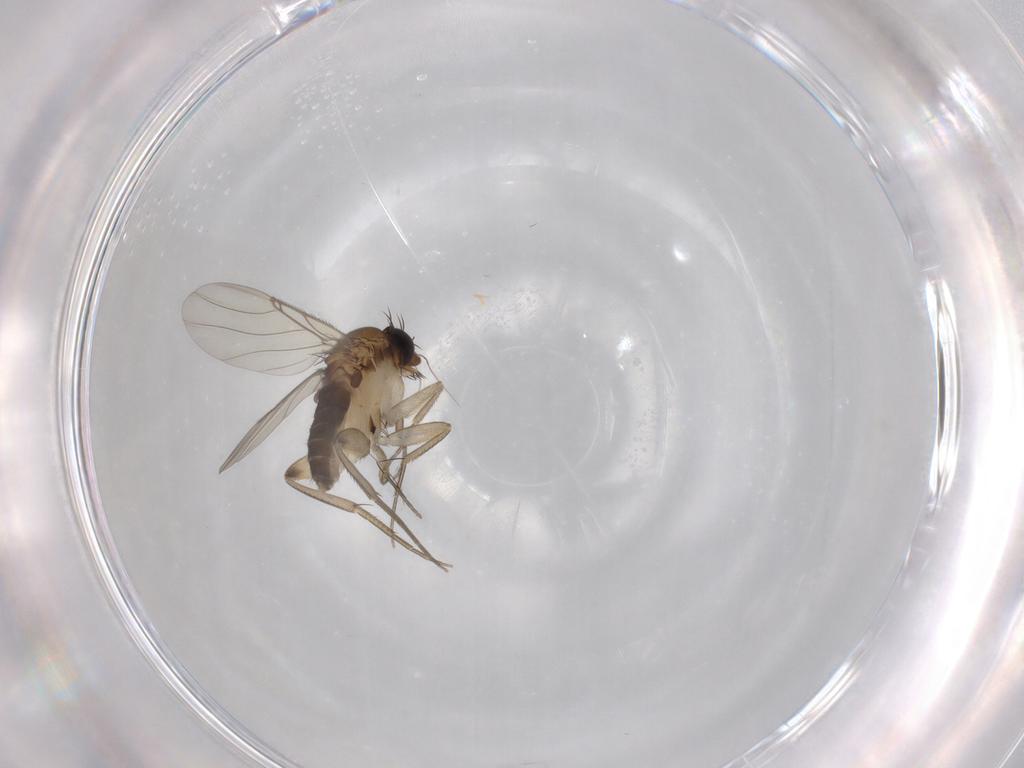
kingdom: Animalia
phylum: Arthropoda
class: Insecta
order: Diptera
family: Phoridae
